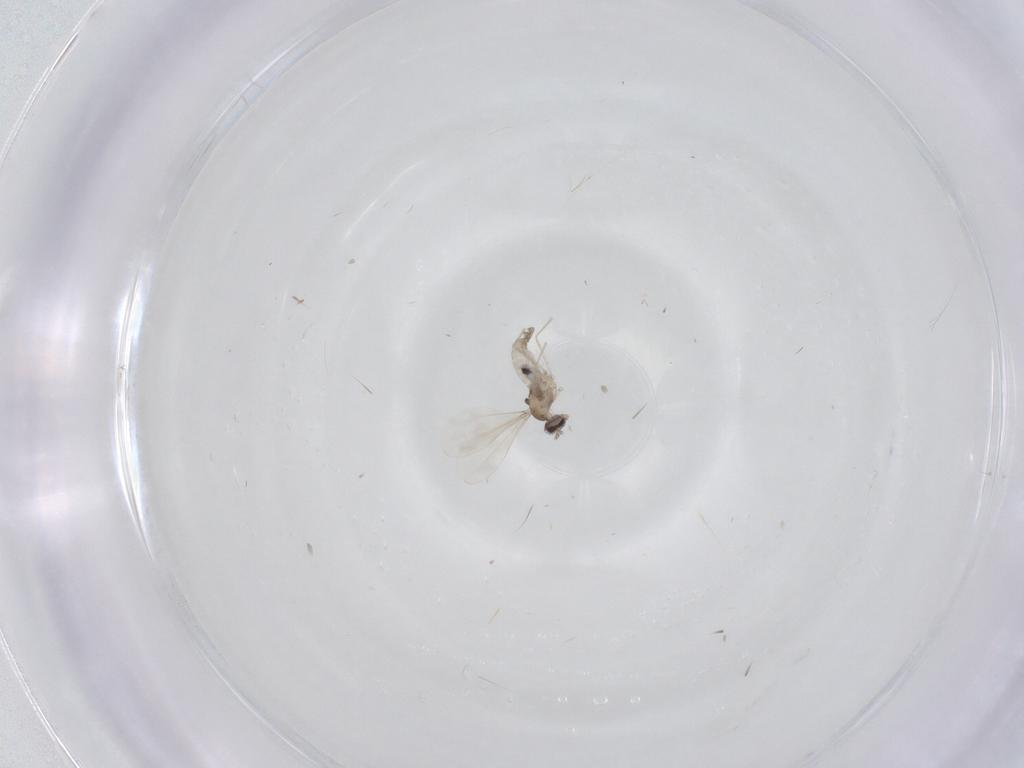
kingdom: Animalia
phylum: Arthropoda
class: Insecta
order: Diptera
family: Cecidomyiidae
